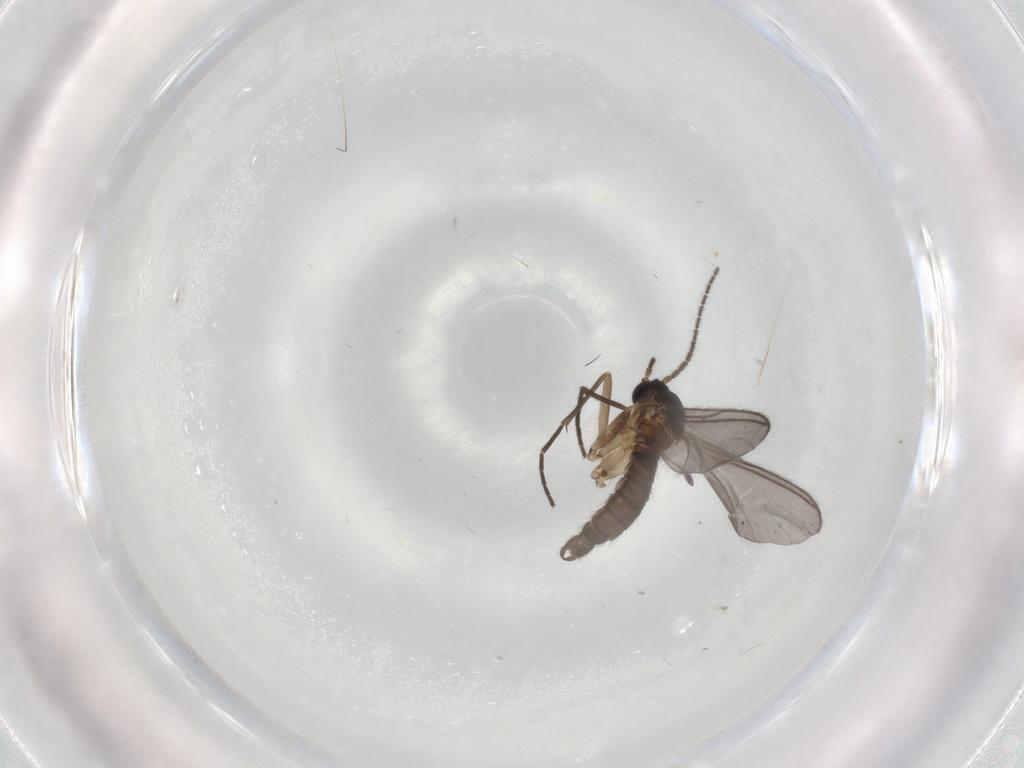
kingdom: Animalia
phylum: Arthropoda
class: Insecta
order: Diptera
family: Sciaridae
